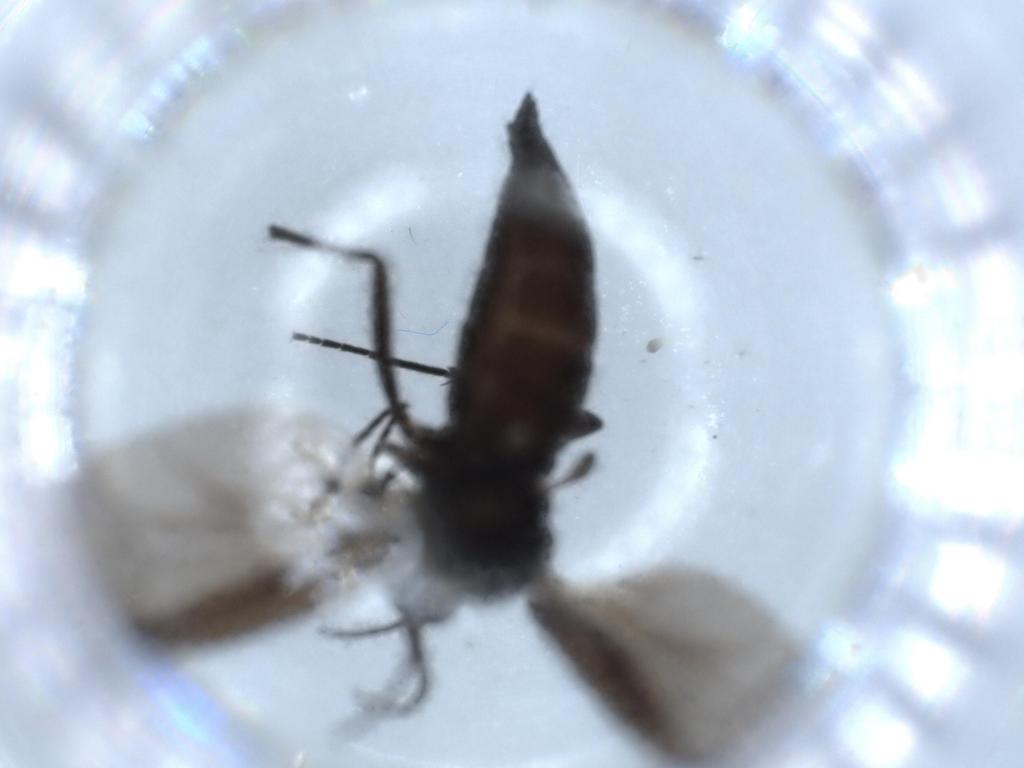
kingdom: Animalia
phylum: Arthropoda
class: Insecta
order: Diptera
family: Sciaridae
